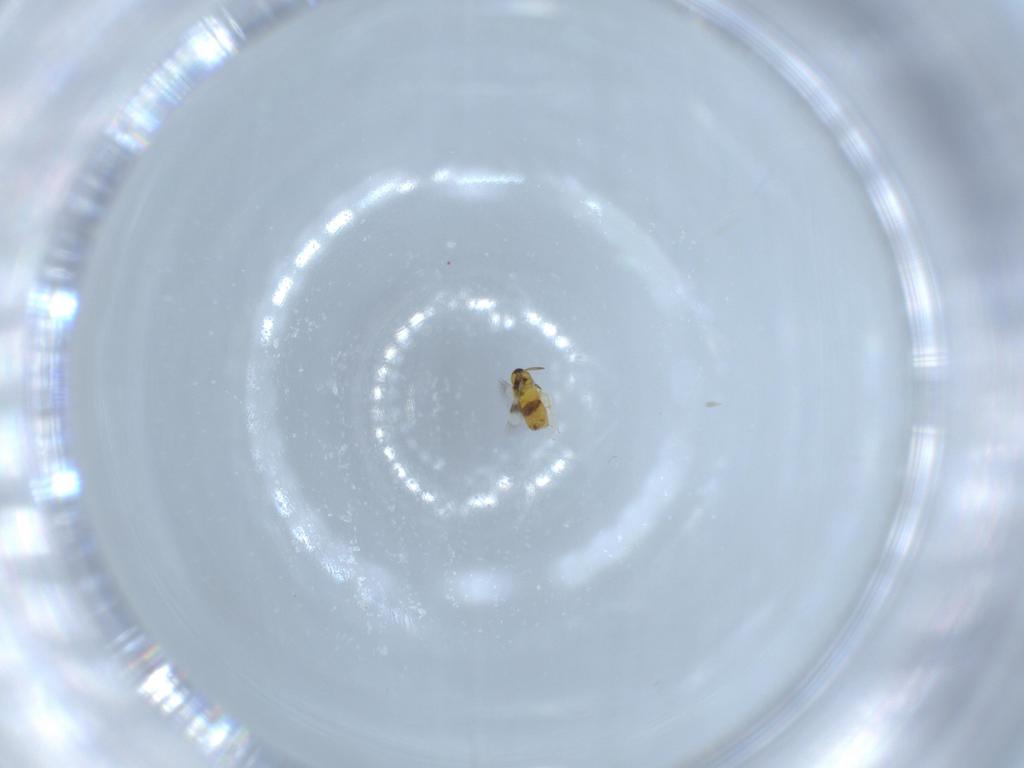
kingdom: Animalia
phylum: Arthropoda
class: Insecta
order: Hymenoptera
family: Signiphoridae
